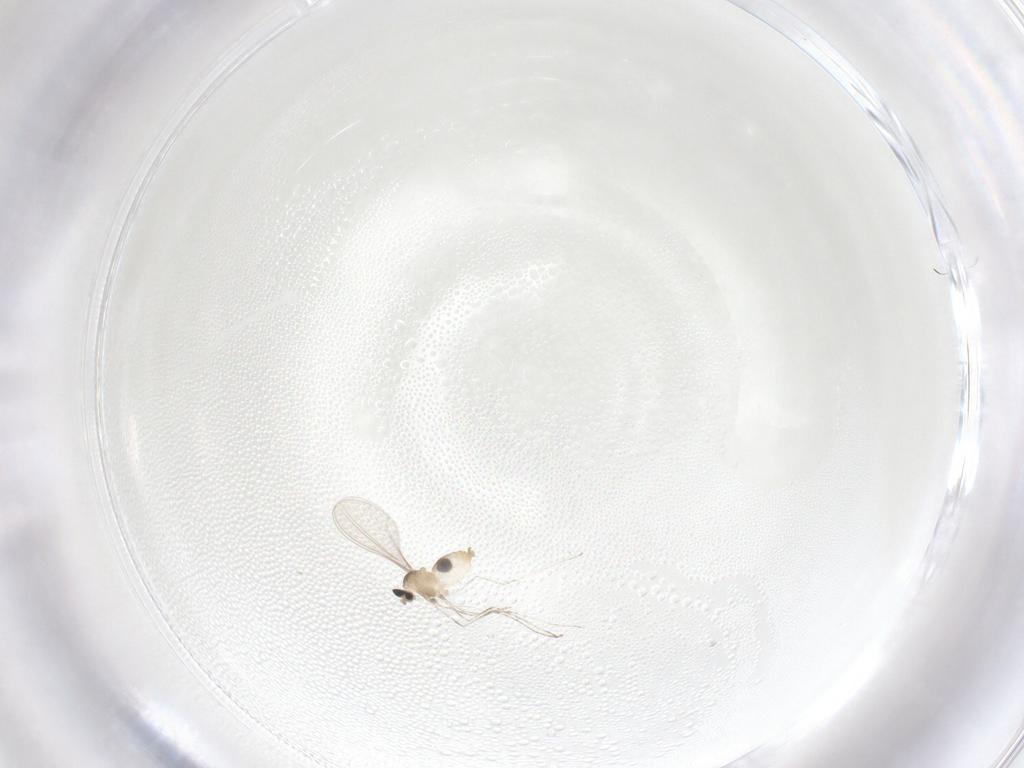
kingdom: Animalia
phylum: Arthropoda
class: Insecta
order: Diptera
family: Cecidomyiidae
